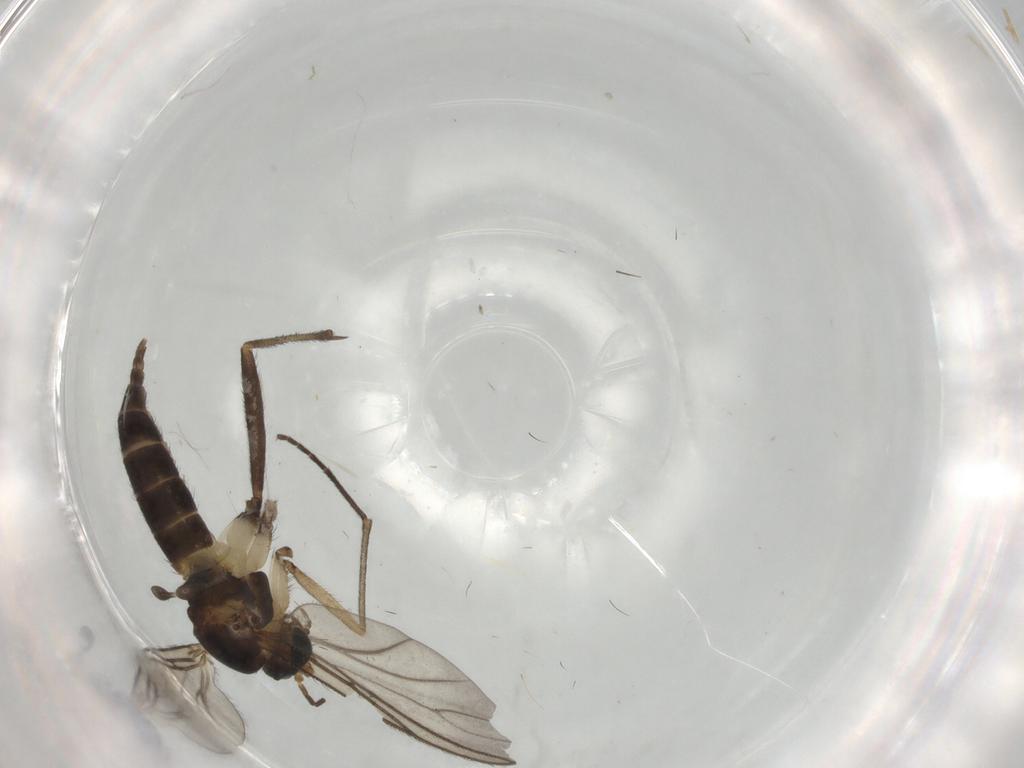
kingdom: Animalia
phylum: Arthropoda
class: Insecta
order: Diptera
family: Sciaridae
